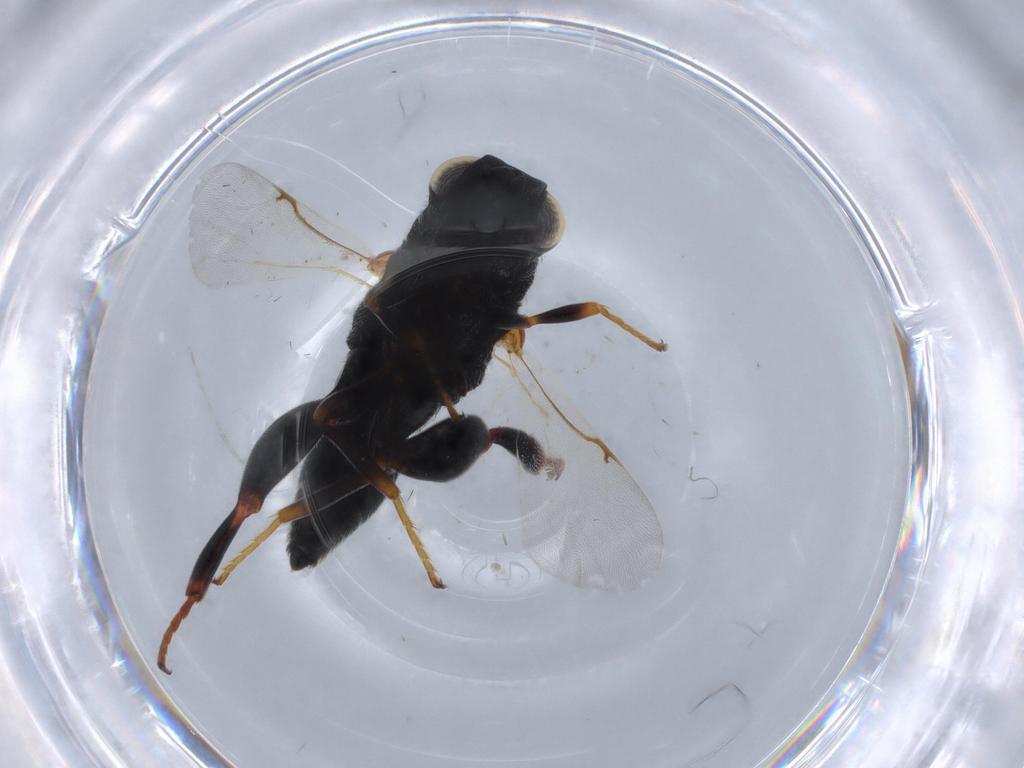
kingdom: Animalia
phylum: Arthropoda
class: Insecta
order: Hymenoptera
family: Chalcididae
